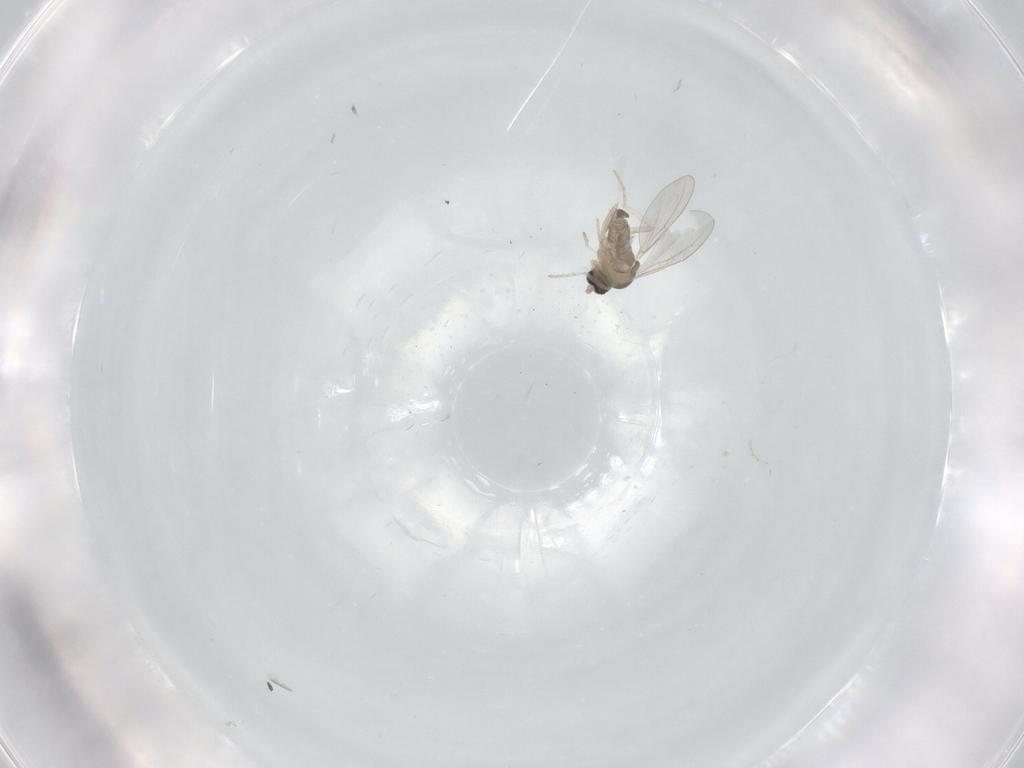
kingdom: Animalia
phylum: Arthropoda
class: Insecta
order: Diptera
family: Cecidomyiidae
